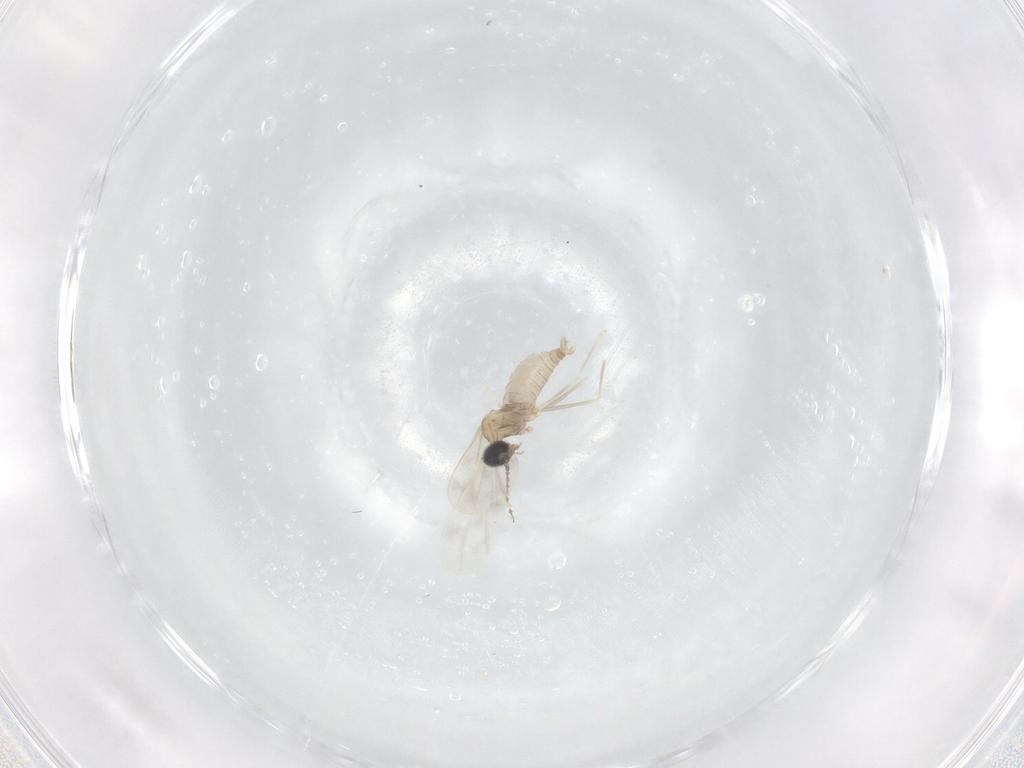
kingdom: Animalia
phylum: Arthropoda
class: Insecta
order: Diptera
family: Cecidomyiidae
